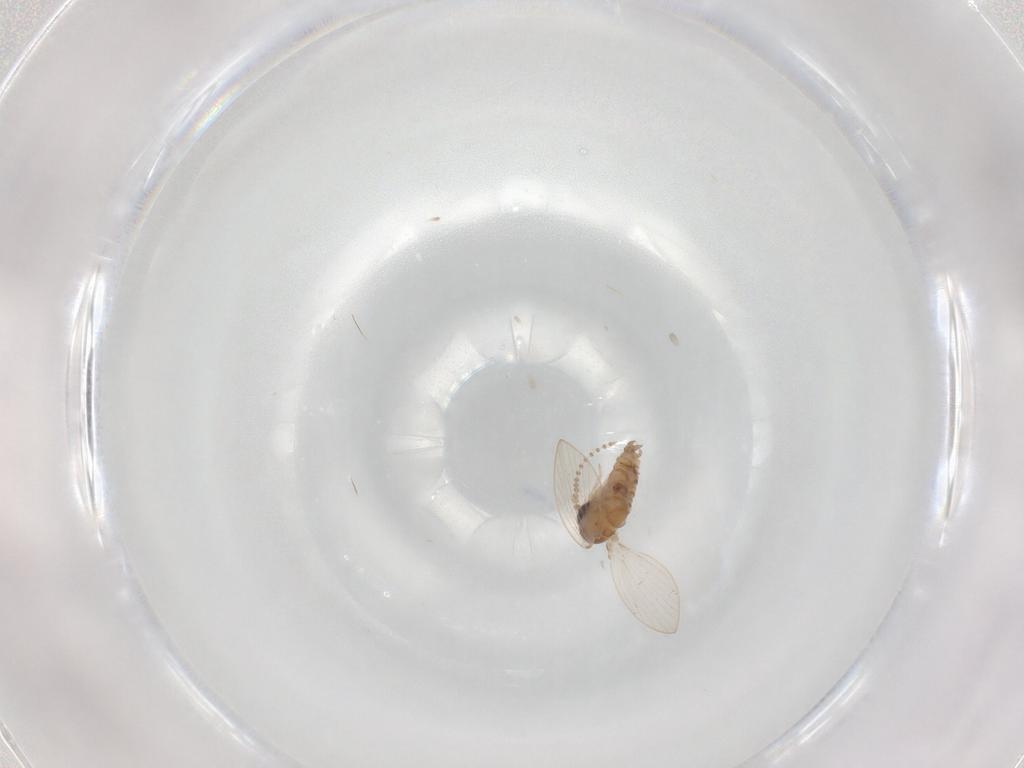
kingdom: Animalia
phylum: Arthropoda
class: Insecta
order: Diptera
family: Psychodidae
